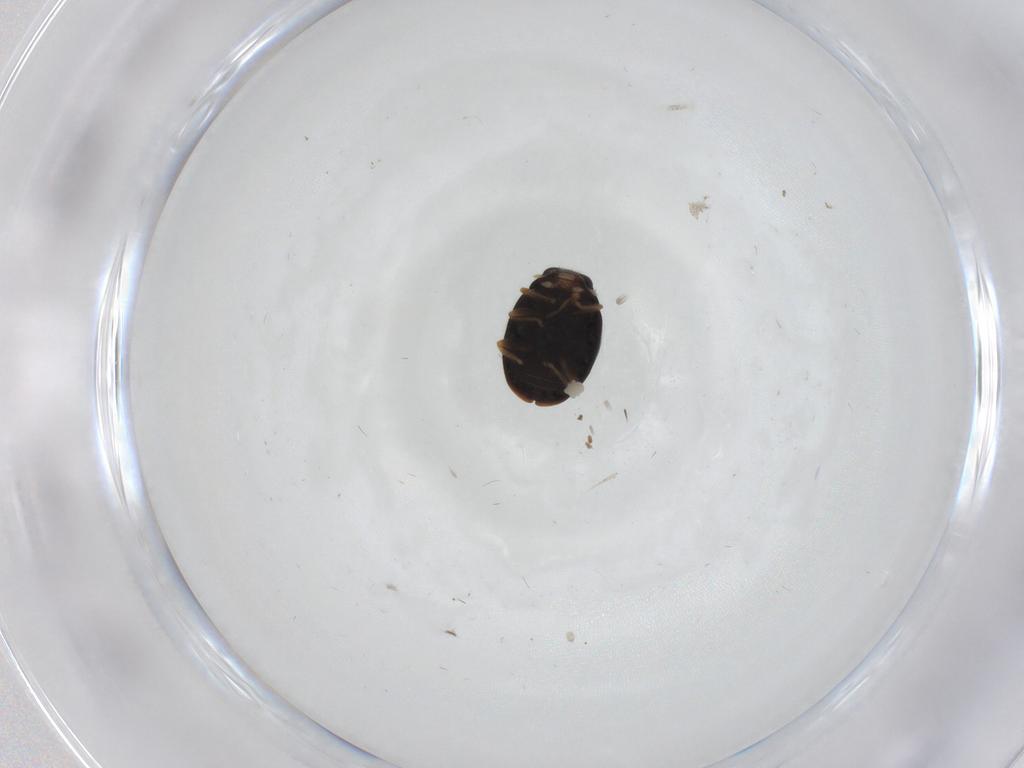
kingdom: Animalia
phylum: Arthropoda
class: Insecta
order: Coleoptera
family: Coccinellidae
